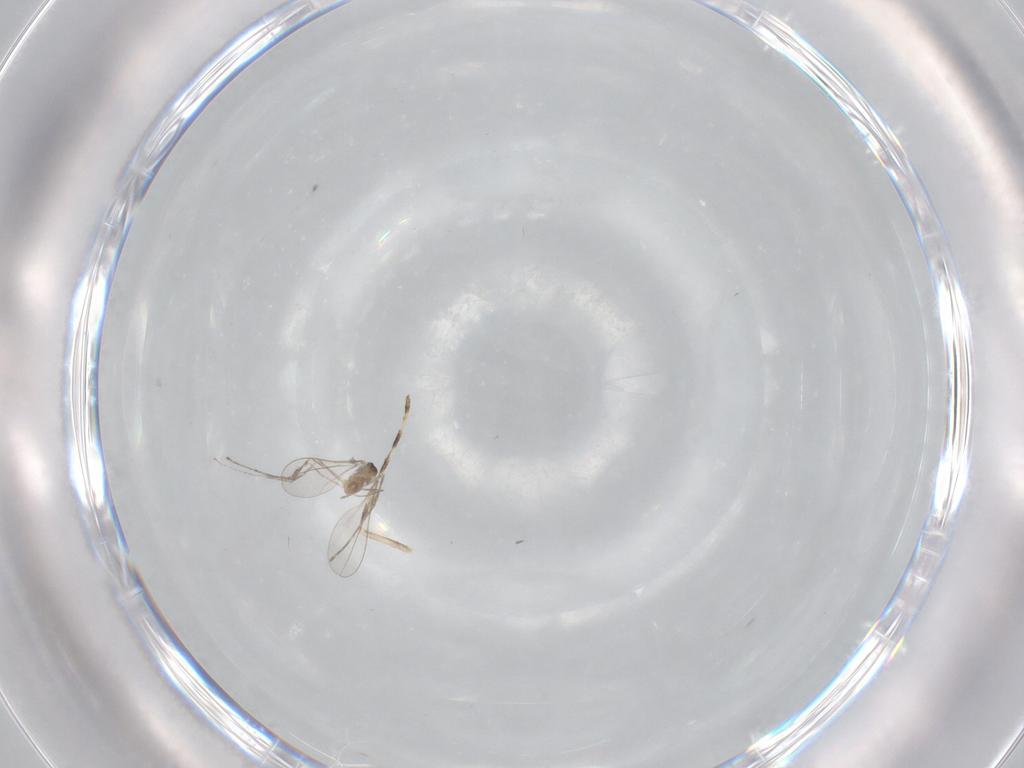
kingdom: Animalia
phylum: Arthropoda
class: Insecta
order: Diptera
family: Cecidomyiidae
